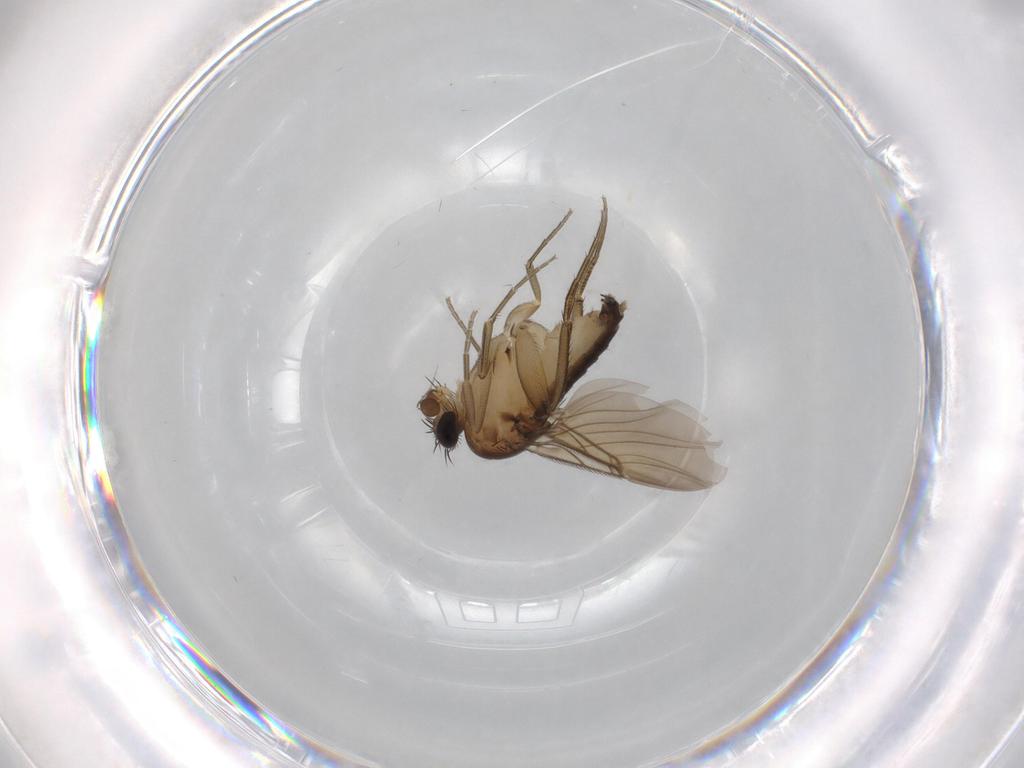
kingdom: Animalia
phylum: Arthropoda
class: Insecta
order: Diptera
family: Phoridae
